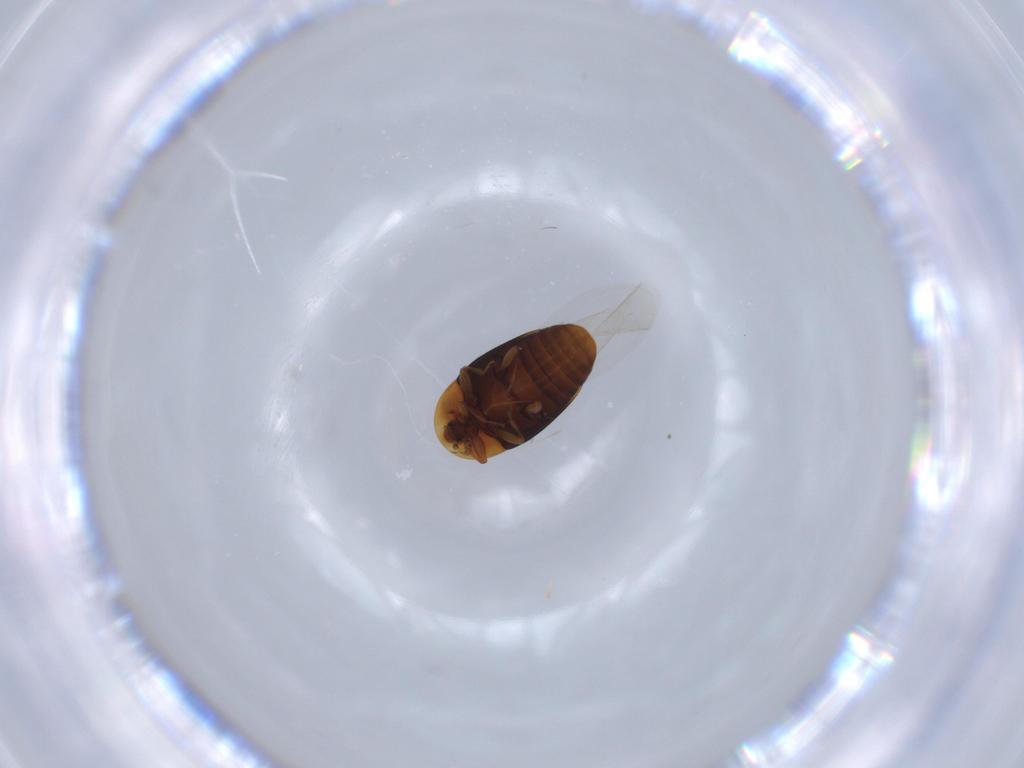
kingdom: Animalia
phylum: Arthropoda
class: Insecta
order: Coleoptera
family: Corylophidae
